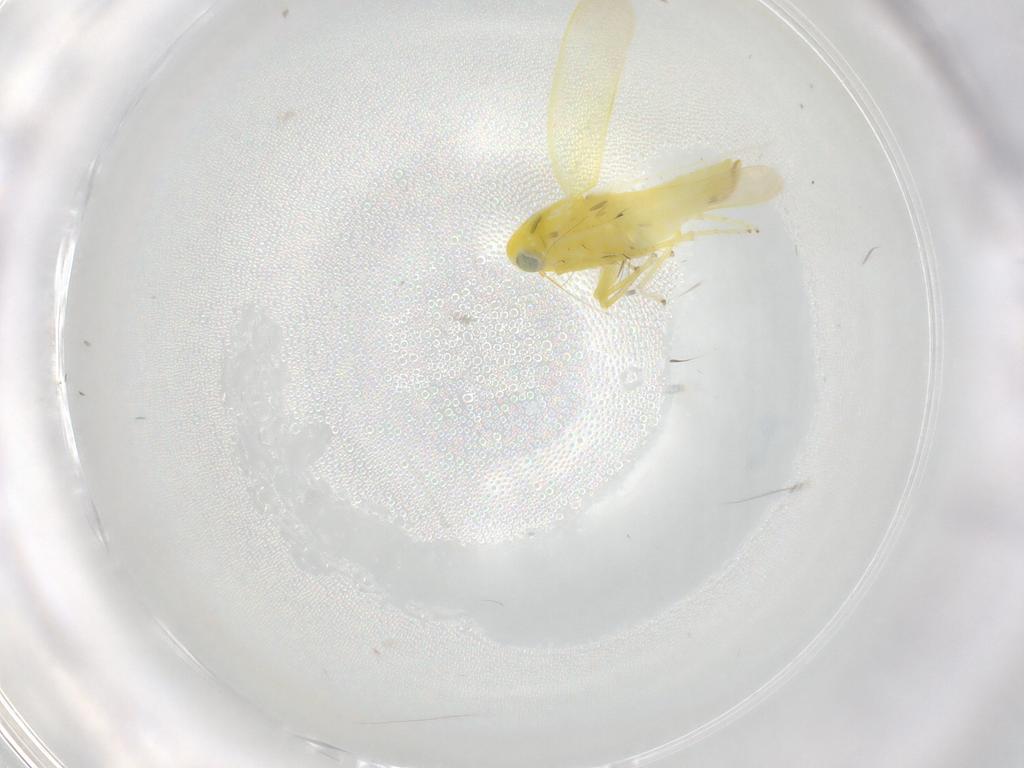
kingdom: Animalia
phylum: Arthropoda
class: Insecta
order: Hemiptera
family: Cicadellidae
